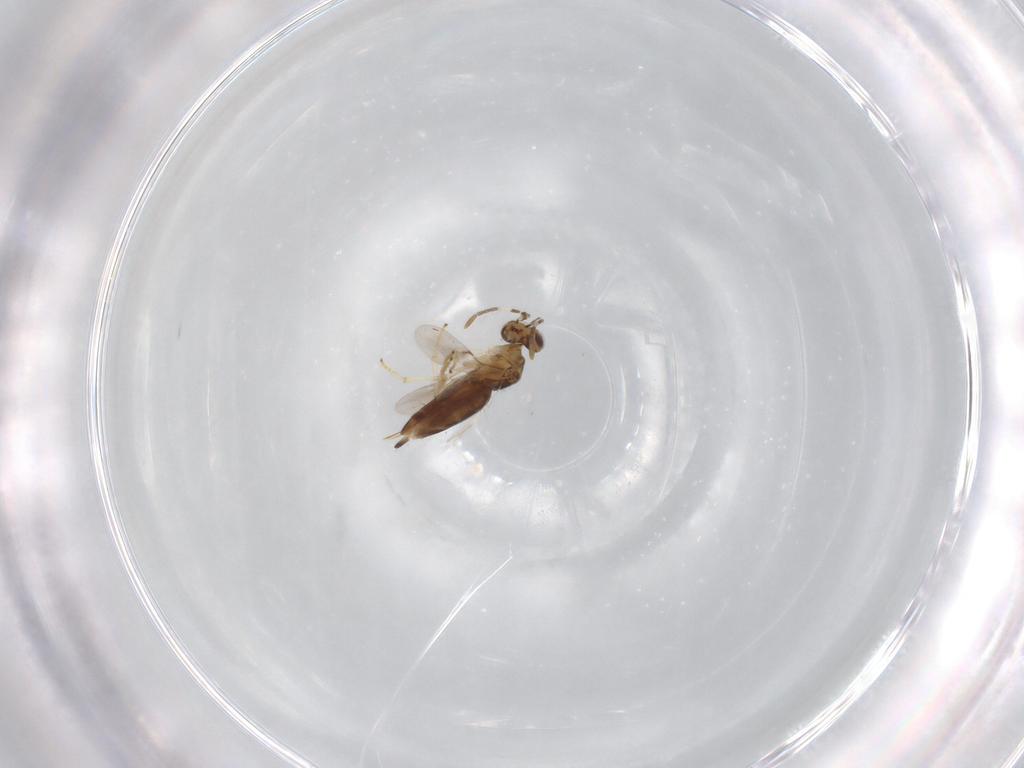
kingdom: Animalia
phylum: Arthropoda
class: Insecta
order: Hymenoptera
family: Encyrtidae
